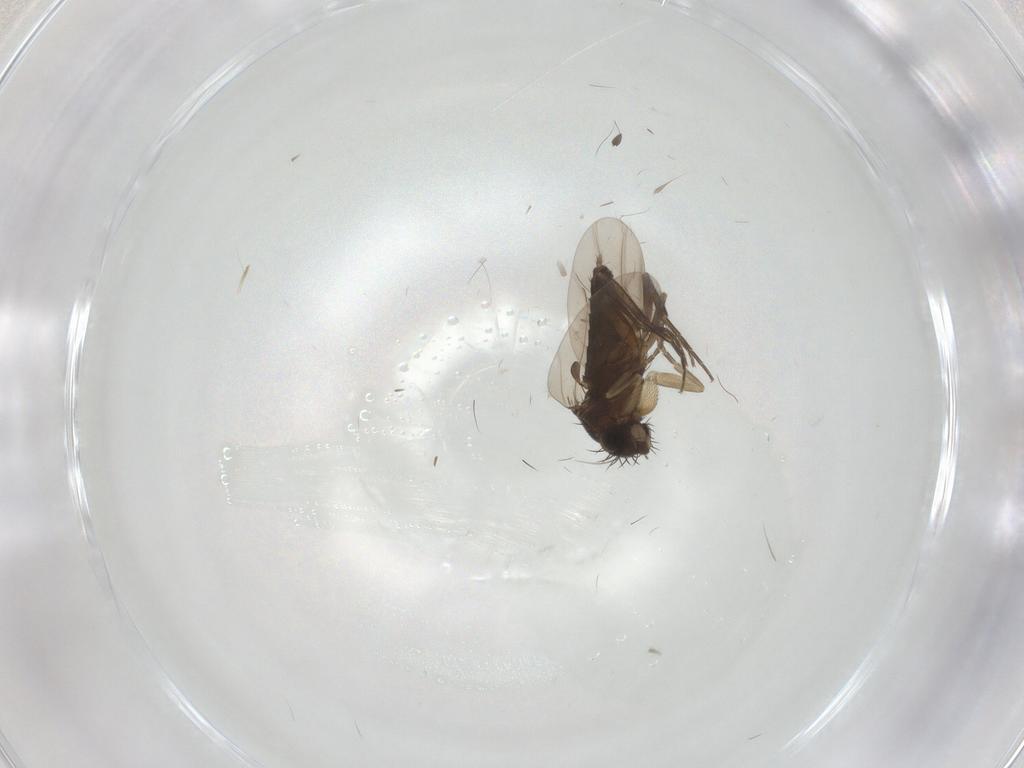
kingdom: Animalia
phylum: Arthropoda
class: Insecta
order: Diptera
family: Phoridae
